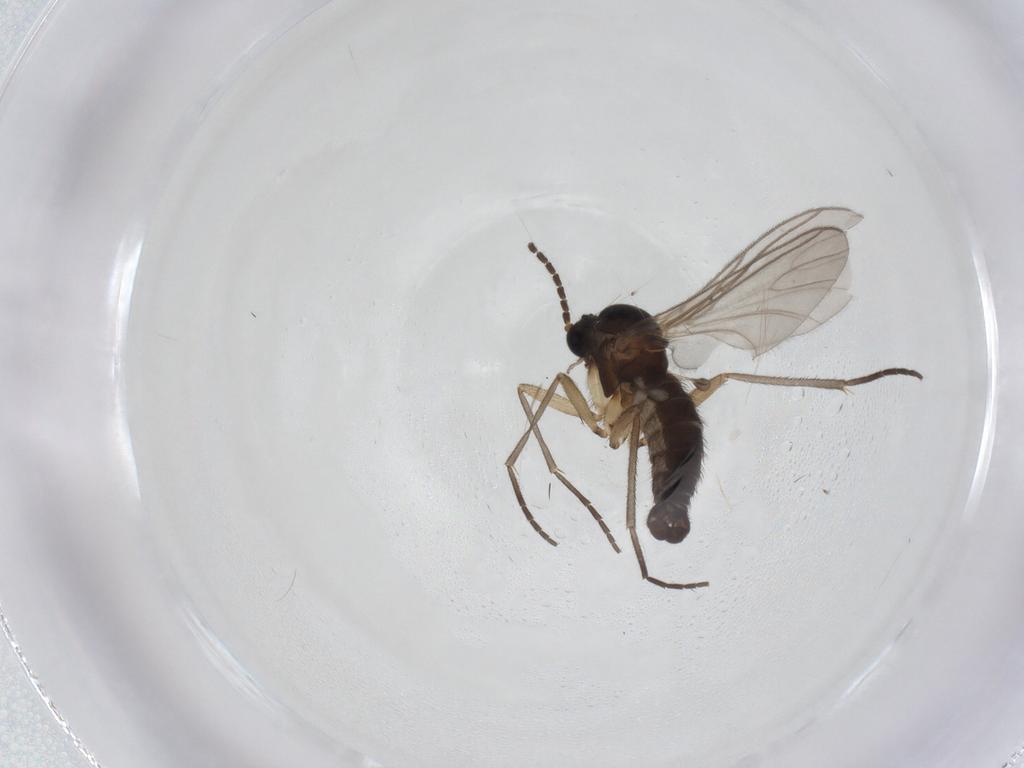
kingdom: Animalia
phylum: Arthropoda
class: Insecta
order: Diptera
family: Sciaridae
